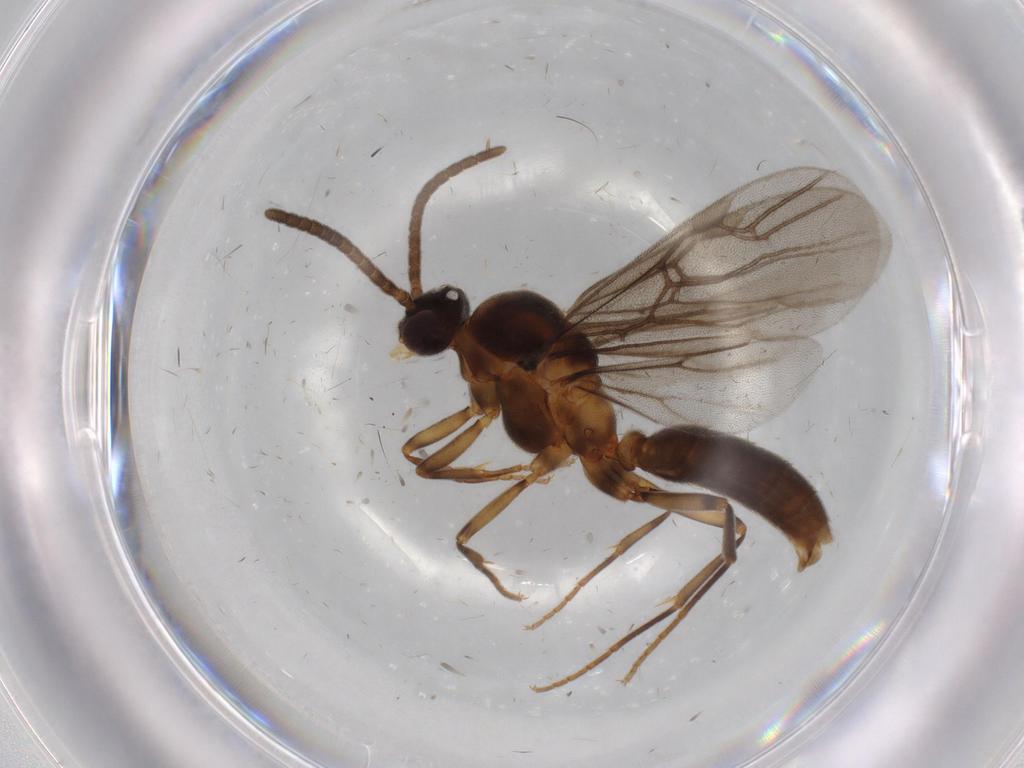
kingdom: Animalia
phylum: Arthropoda
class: Insecta
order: Hymenoptera
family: Formicidae
